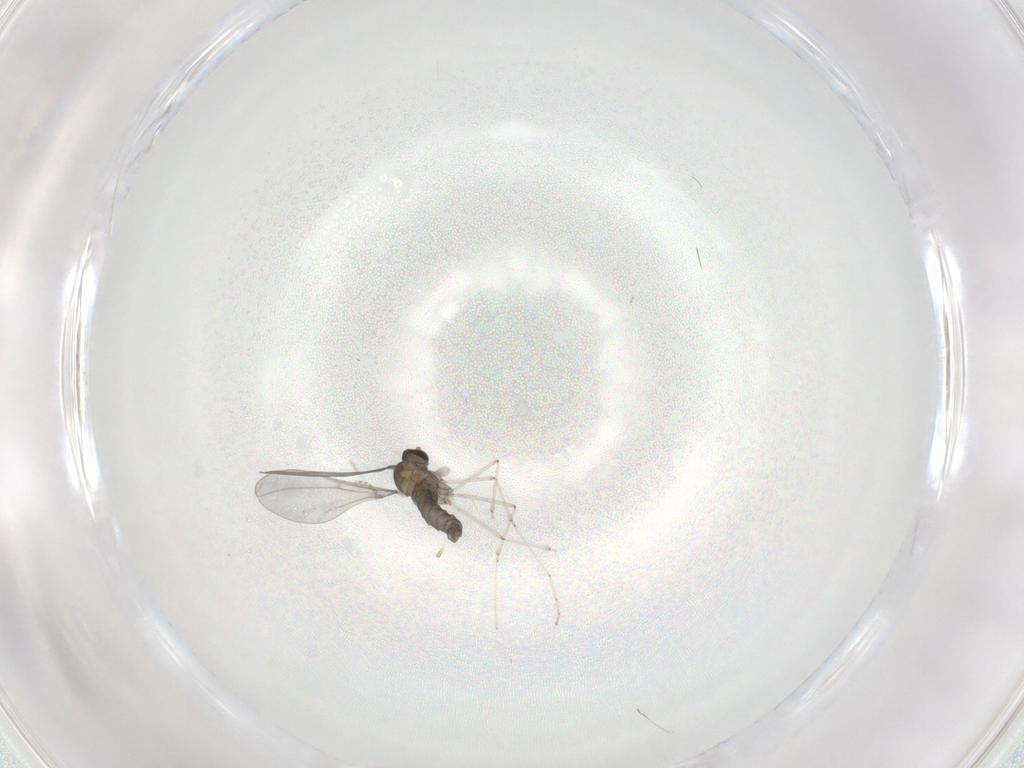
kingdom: Animalia
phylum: Arthropoda
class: Insecta
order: Diptera
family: Cecidomyiidae
